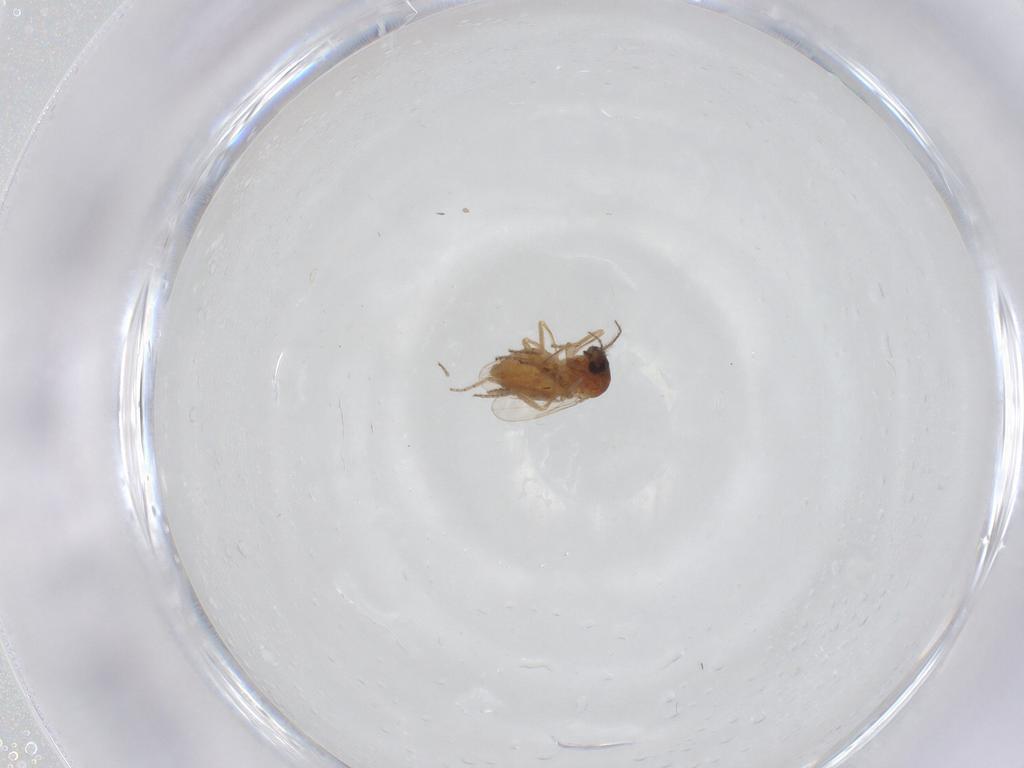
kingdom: Animalia
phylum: Arthropoda
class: Insecta
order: Diptera
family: Ceratopogonidae
